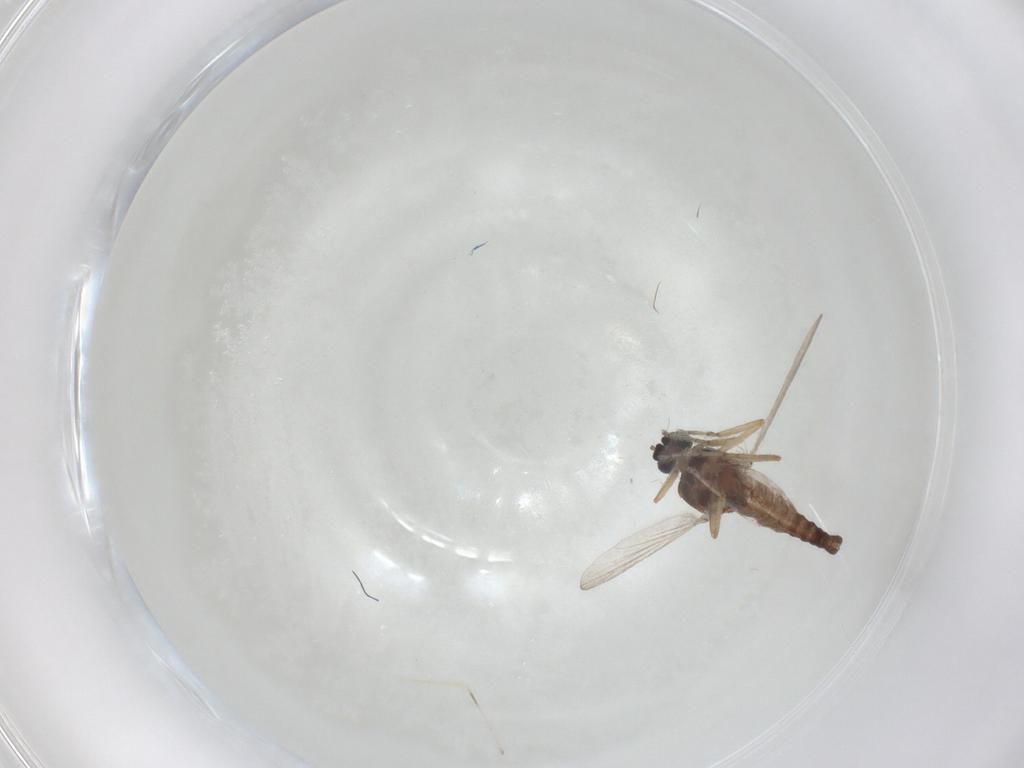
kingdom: Animalia
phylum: Arthropoda
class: Insecta
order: Diptera
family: Ceratopogonidae
